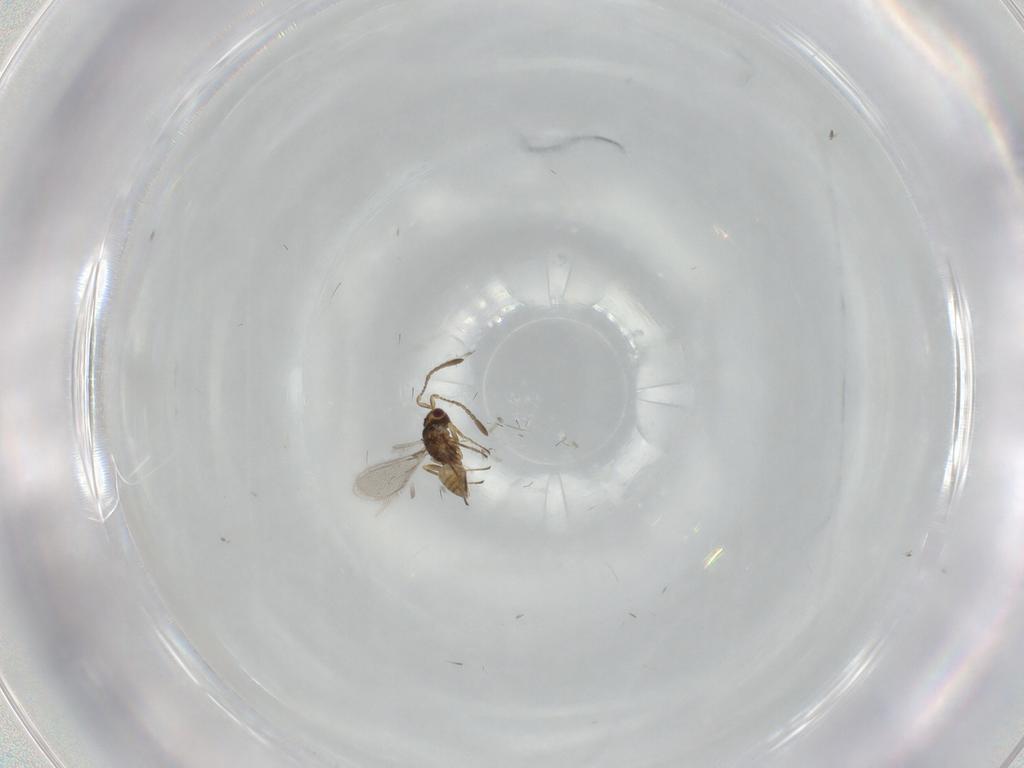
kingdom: Animalia
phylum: Arthropoda
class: Insecta
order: Hymenoptera
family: Mymaridae
